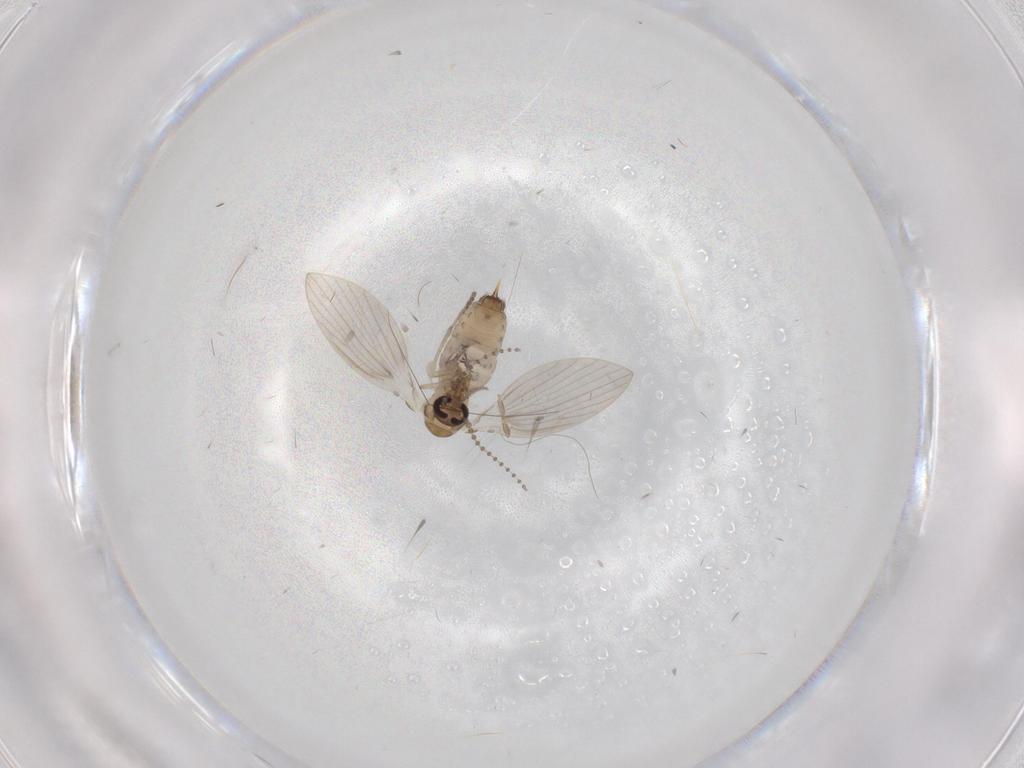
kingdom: Animalia
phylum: Arthropoda
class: Insecta
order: Diptera
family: Psychodidae
